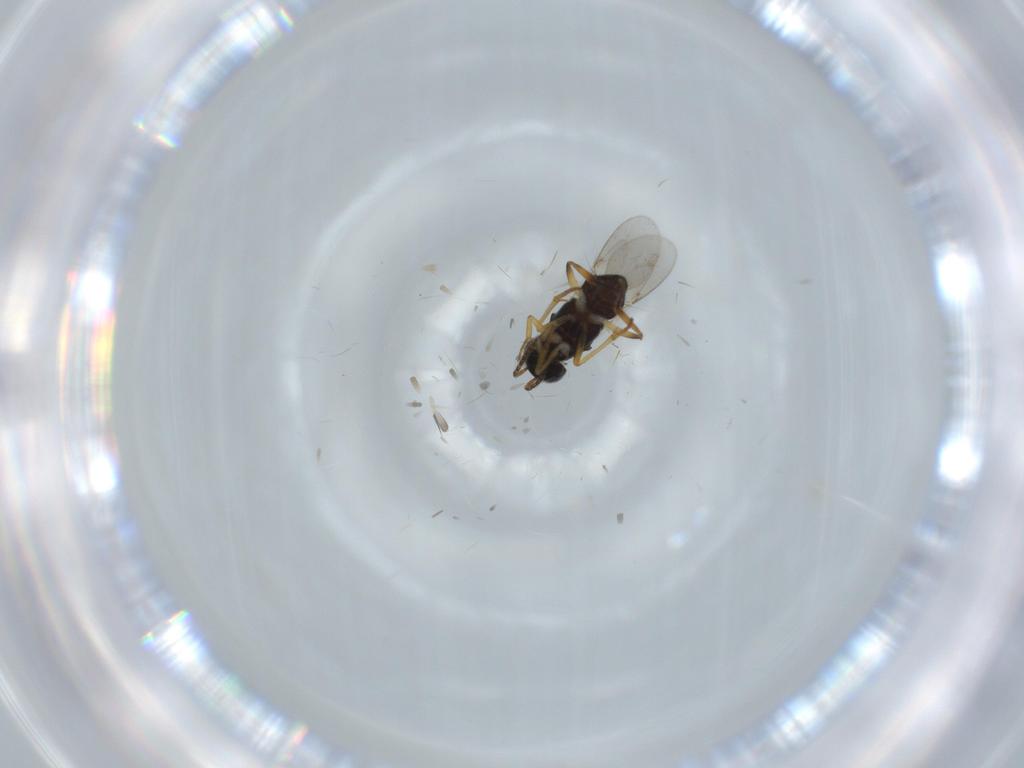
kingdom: Animalia
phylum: Arthropoda
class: Insecta
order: Hymenoptera
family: Encyrtidae
